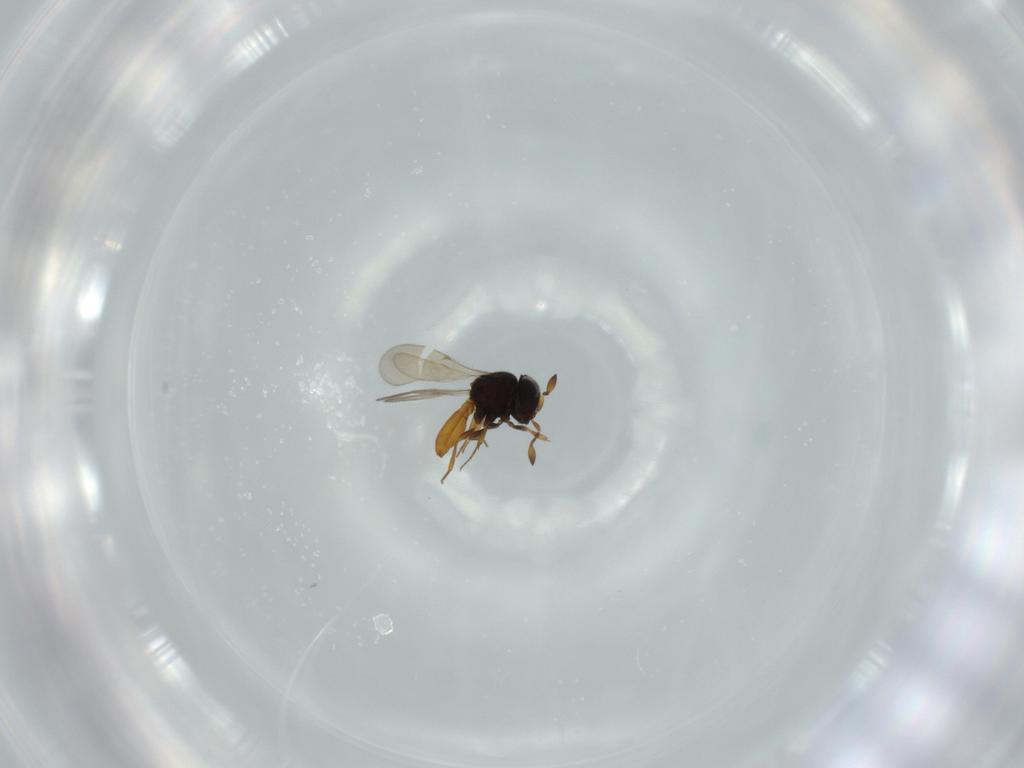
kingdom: Animalia
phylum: Arthropoda
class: Insecta
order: Hymenoptera
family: Scelionidae
